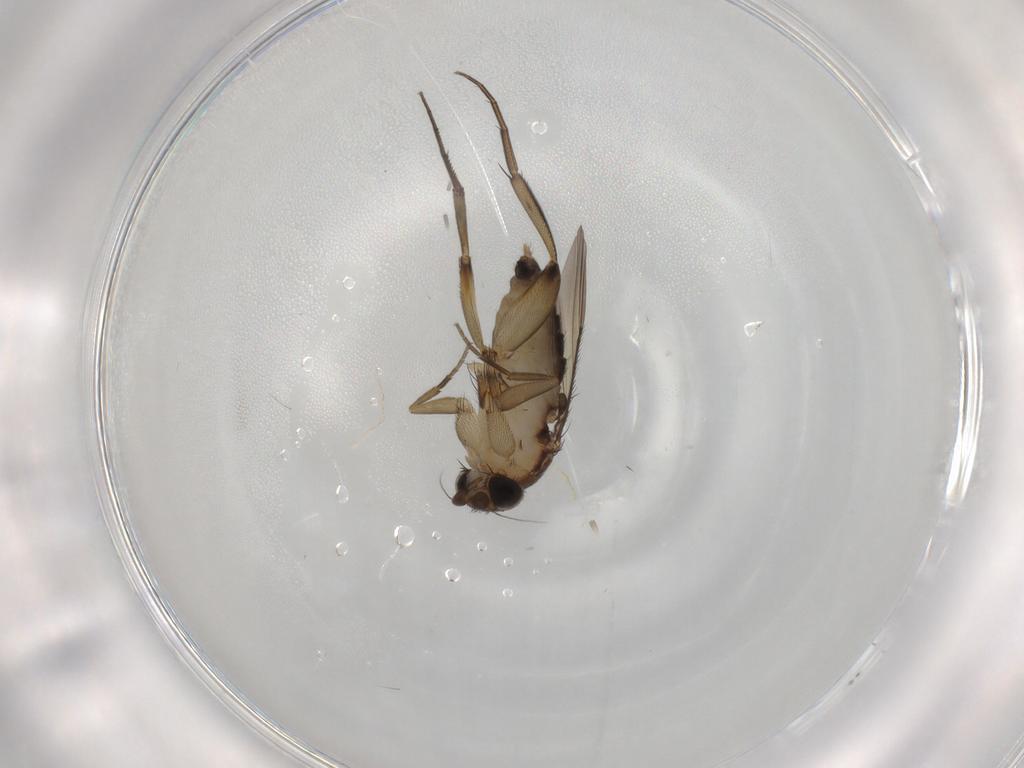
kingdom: Animalia
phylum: Arthropoda
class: Insecta
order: Diptera
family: Phoridae
